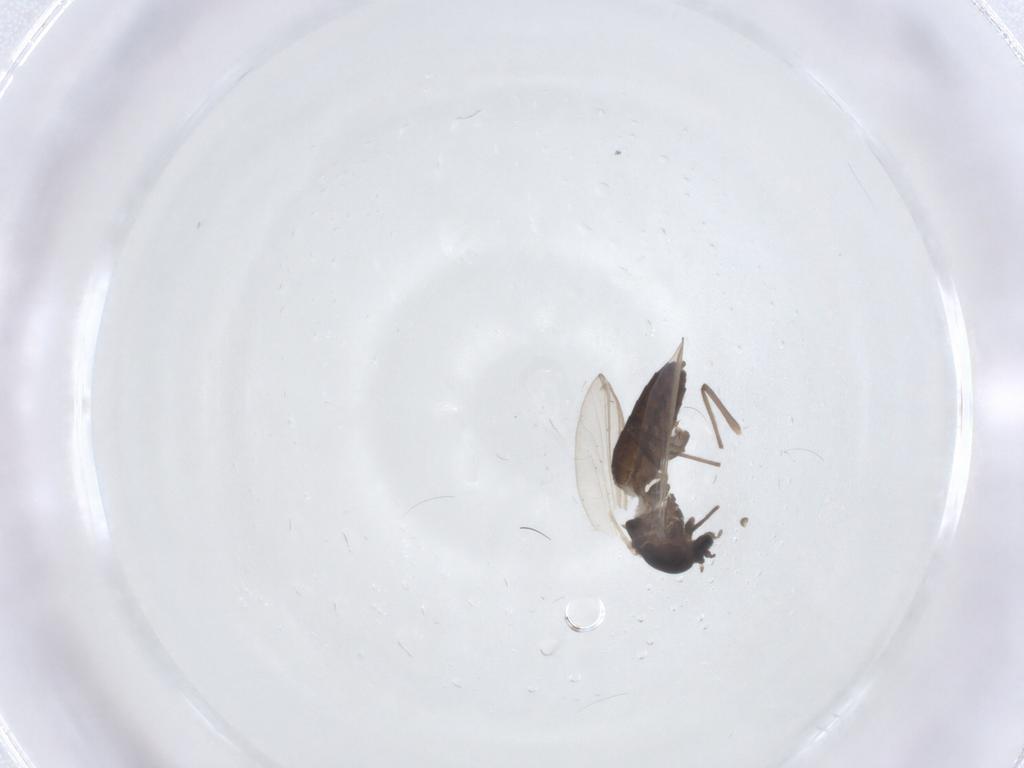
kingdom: Animalia
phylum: Arthropoda
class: Insecta
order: Diptera
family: Chironomidae
